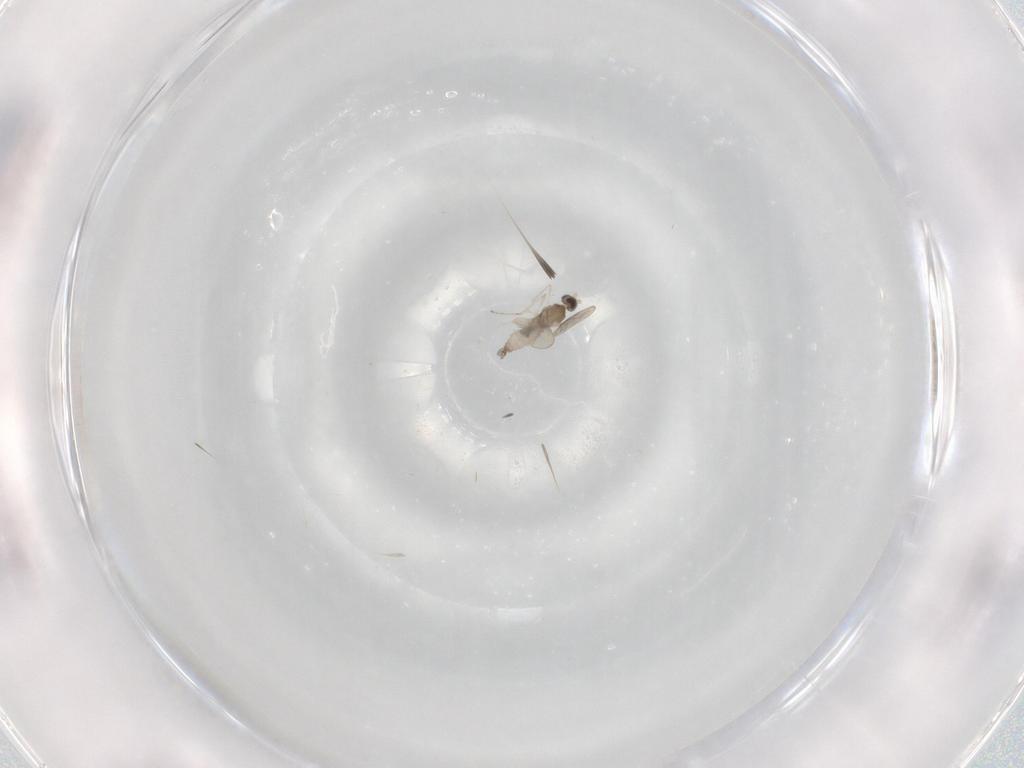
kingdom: Animalia
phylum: Arthropoda
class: Insecta
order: Diptera
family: Cecidomyiidae
